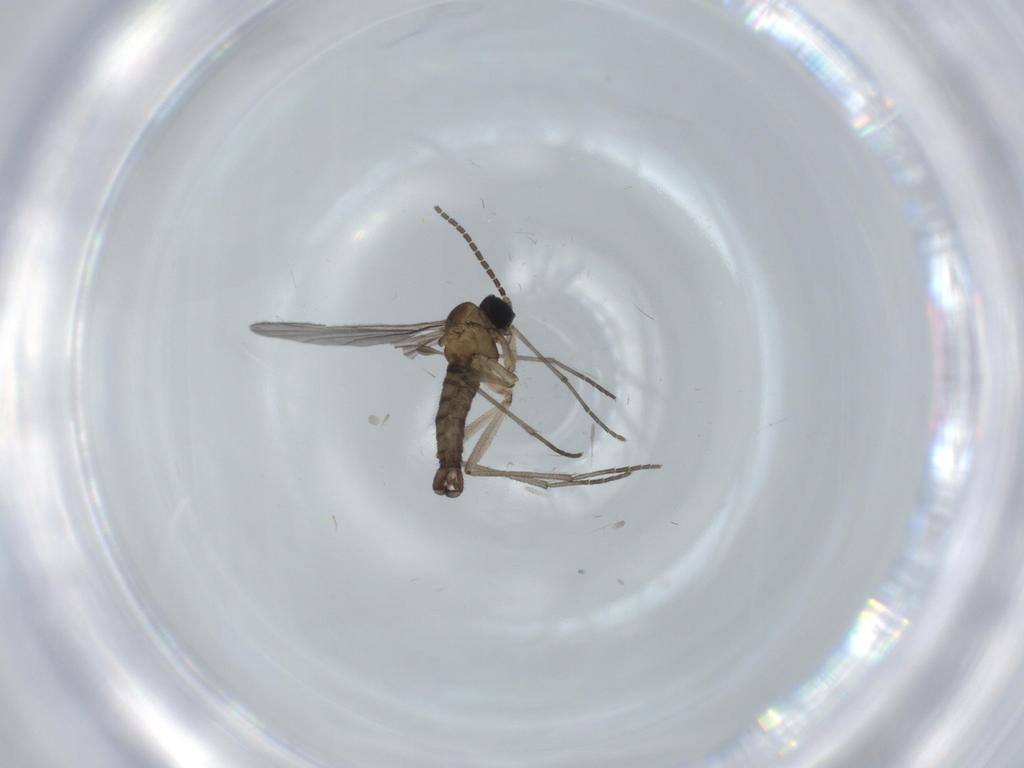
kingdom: Animalia
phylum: Arthropoda
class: Insecta
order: Diptera
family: Sciaridae
